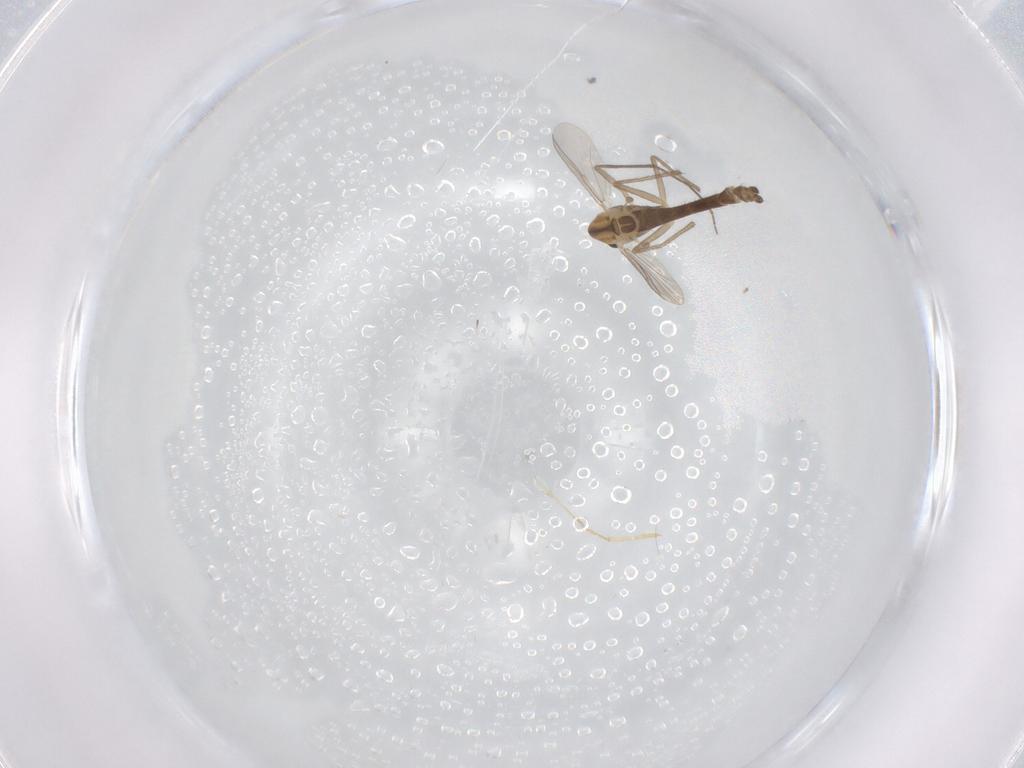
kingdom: Animalia
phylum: Arthropoda
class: Insecta
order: Diptera
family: Chironomidae
